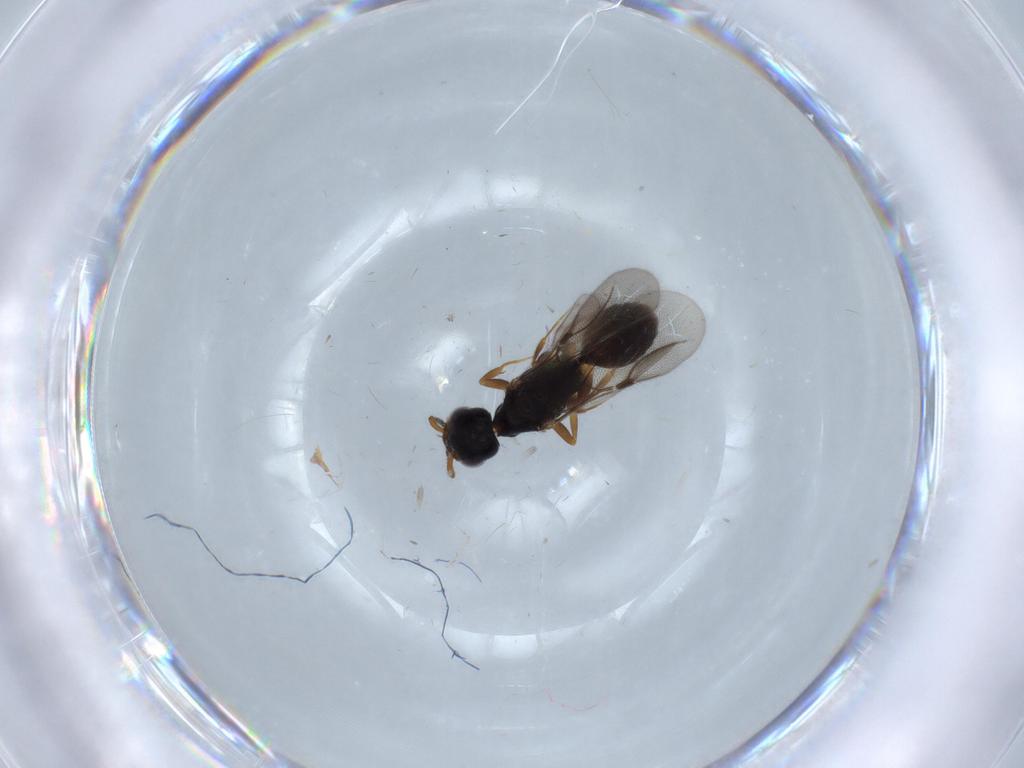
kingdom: Animalia
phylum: Arthropoda
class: Insecta
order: Hymenoptera
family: Bethylidae
